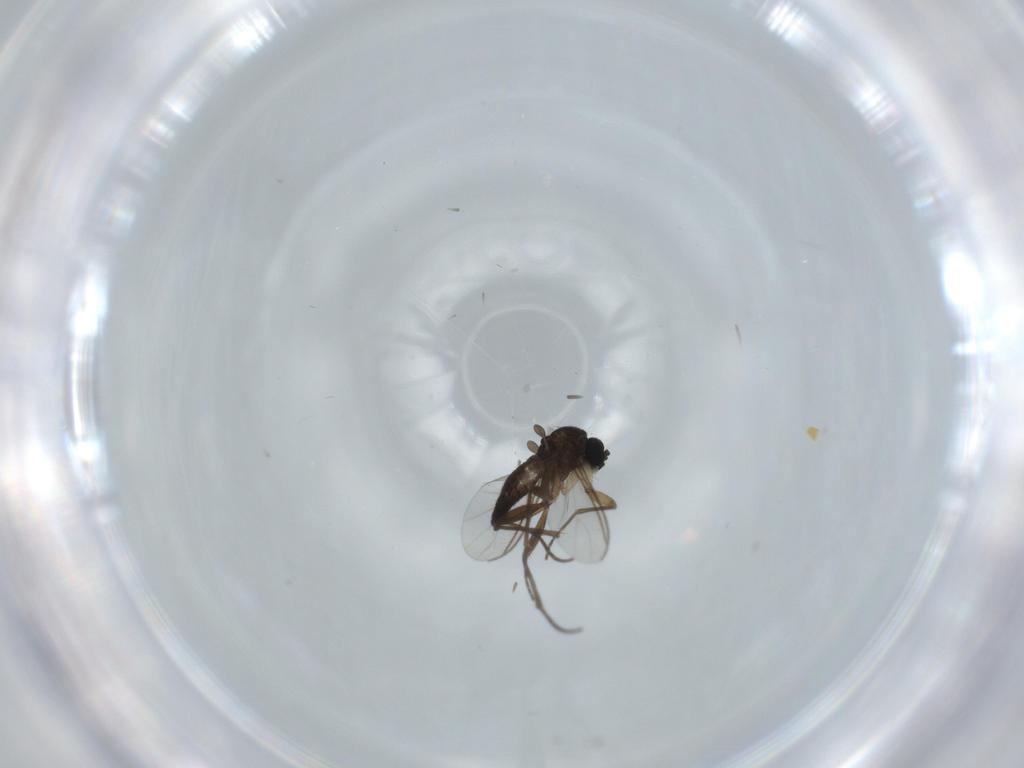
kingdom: Animalia
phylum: Arthropoda
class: Insecta
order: Diptera
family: Sciaridae
